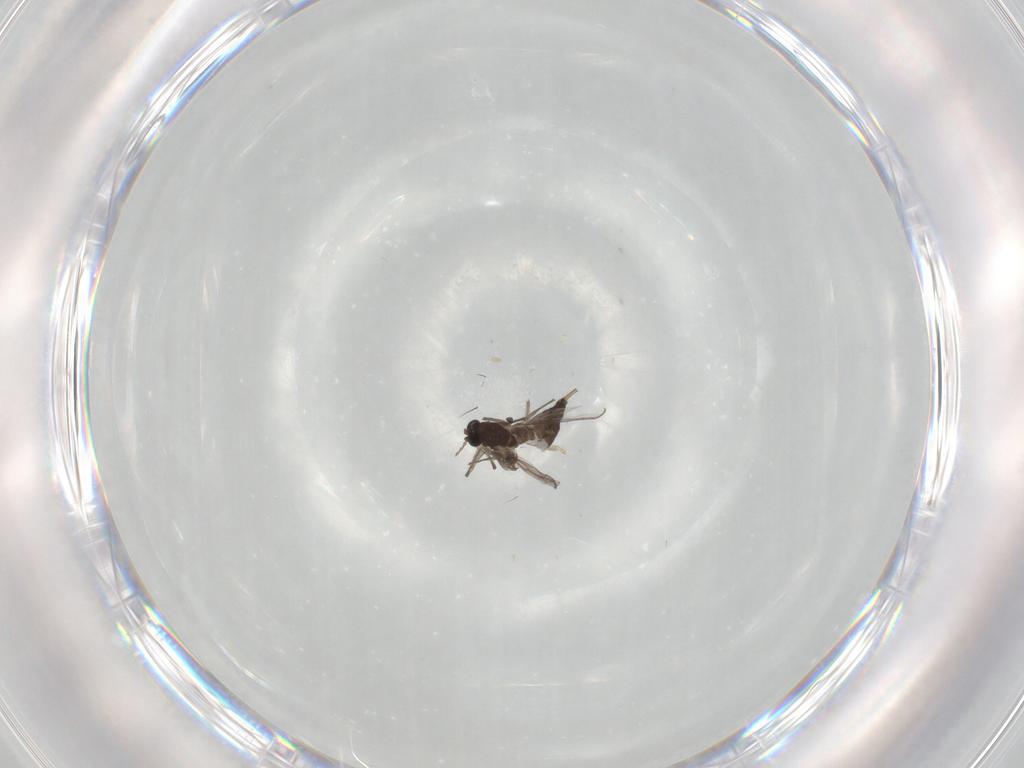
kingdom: Animalia
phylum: Arthropoda
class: Insecta
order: Diptera
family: Chironomidae
